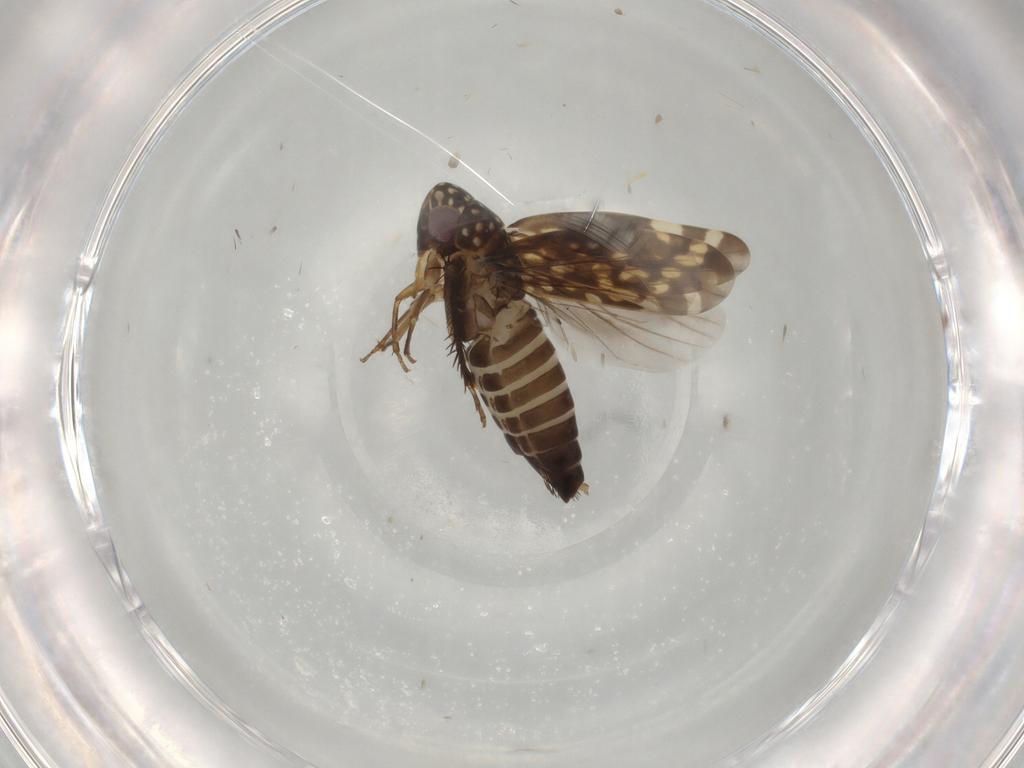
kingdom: Animalia
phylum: Arthropoda
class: Insecta
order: Hemiptera
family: Cicadellidae
